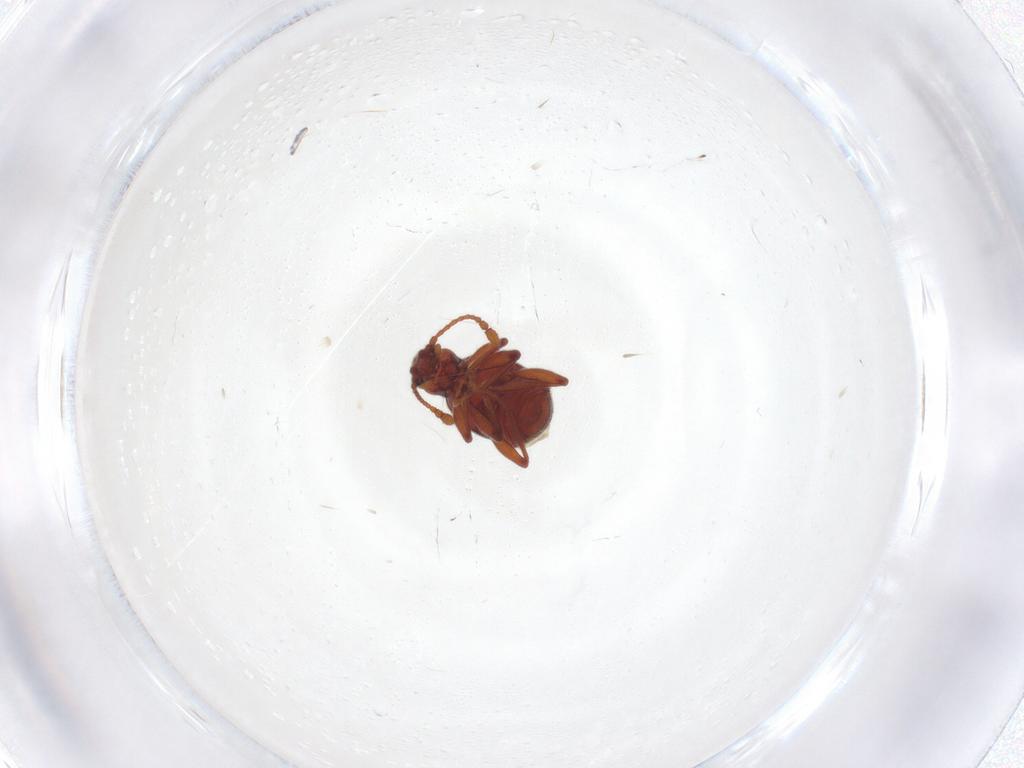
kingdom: Animalia
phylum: Arthropoda
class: Insecta
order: Coleoptera
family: Staphylinidae
